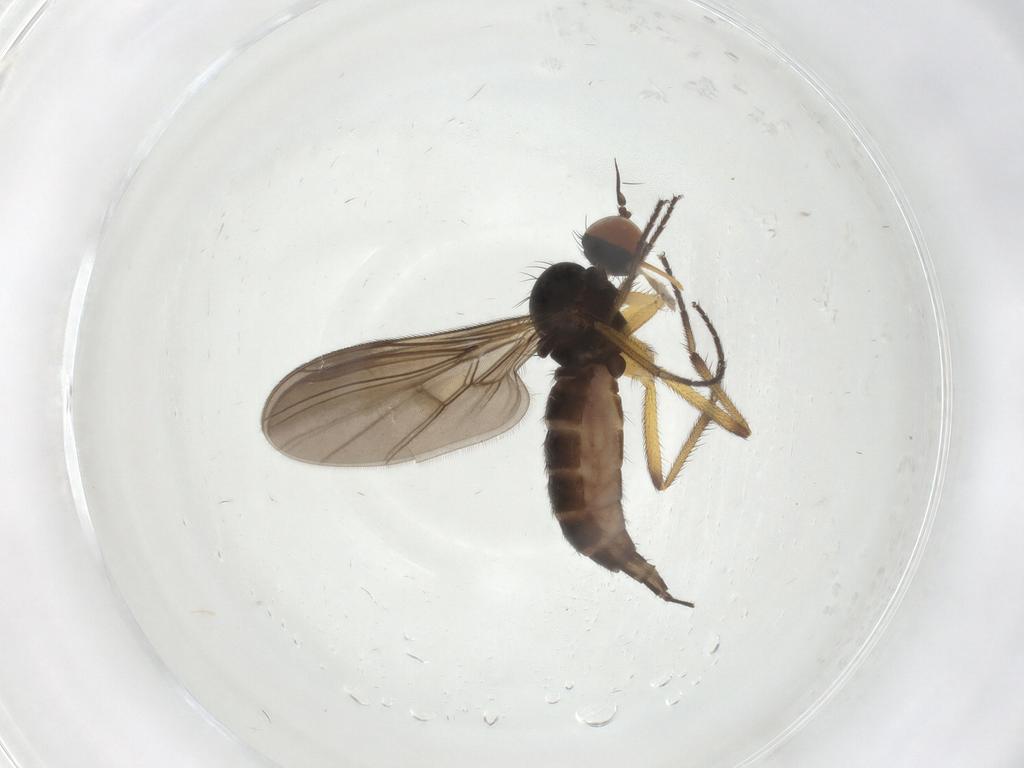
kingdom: Animalia
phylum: Arthropoda
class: Insecta
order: Diptera
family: Empididae
